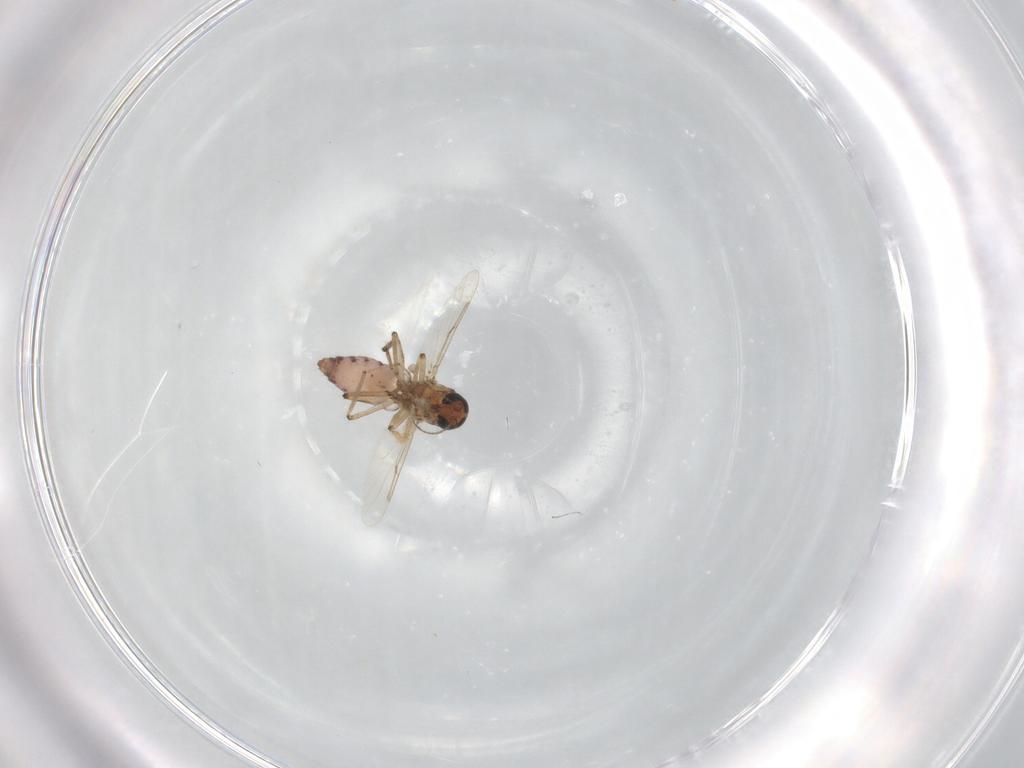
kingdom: Animalia
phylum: Arthropoda
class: Insecta
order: Diptera
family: Ceratopogonidae
